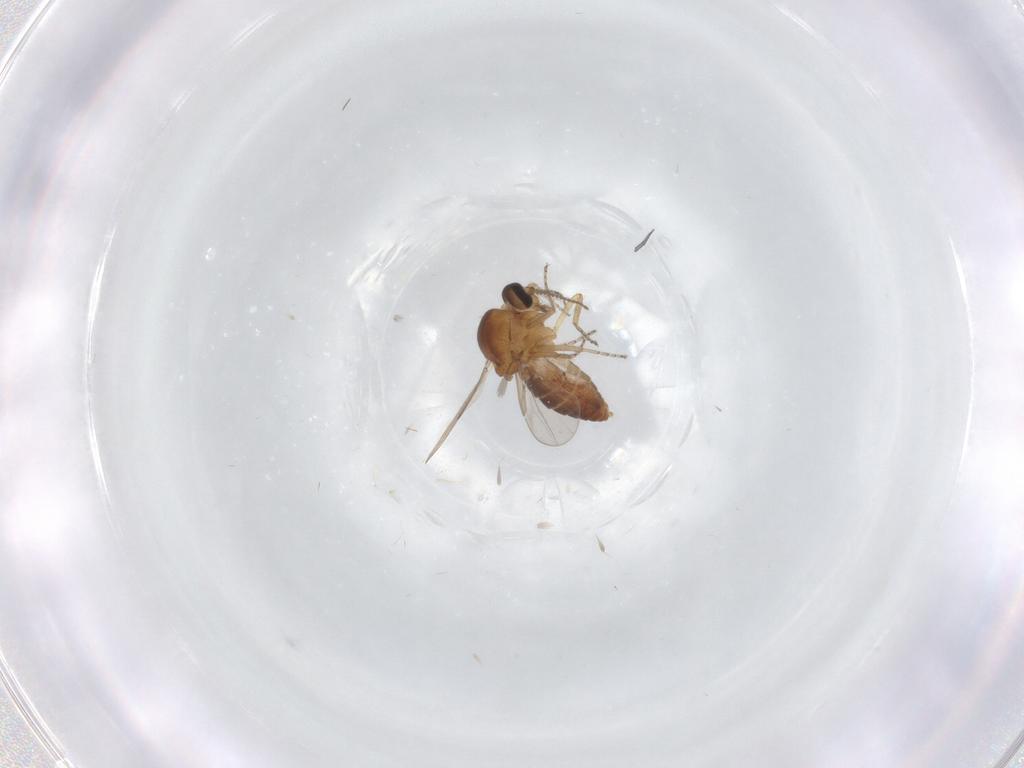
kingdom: Animalia
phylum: Arthropoda
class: Insecta
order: Diptera
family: Ceratopogonidae
